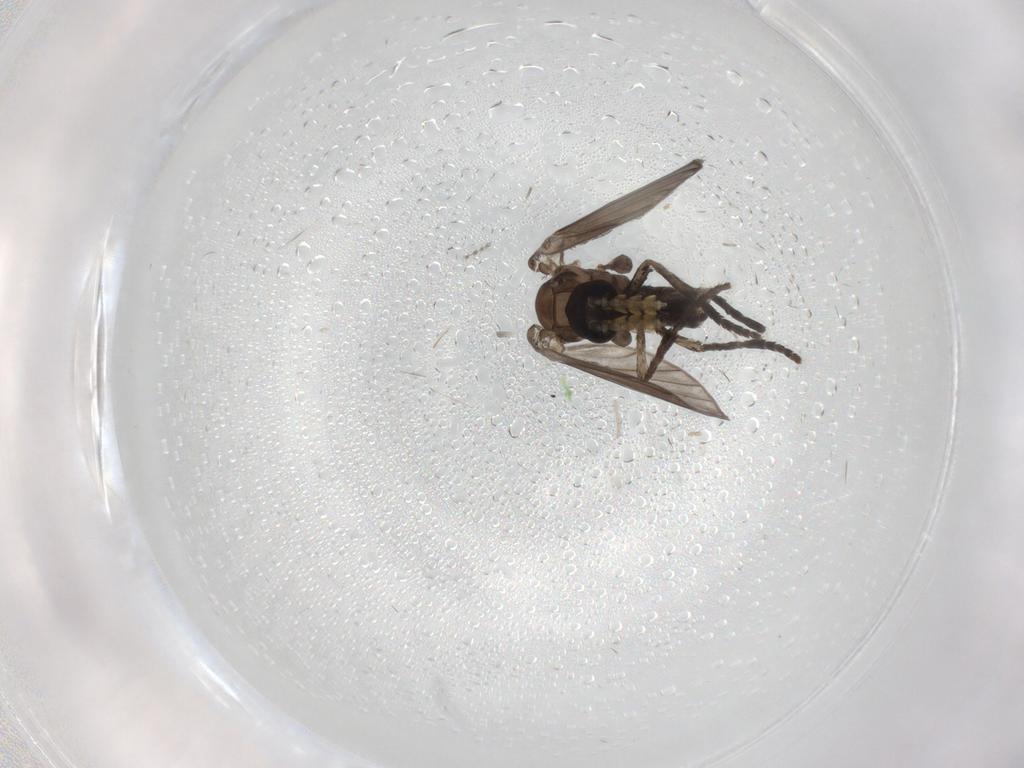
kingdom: Animalia
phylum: Arthropoda
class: Insecta
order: Diptera
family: Psychodidae
